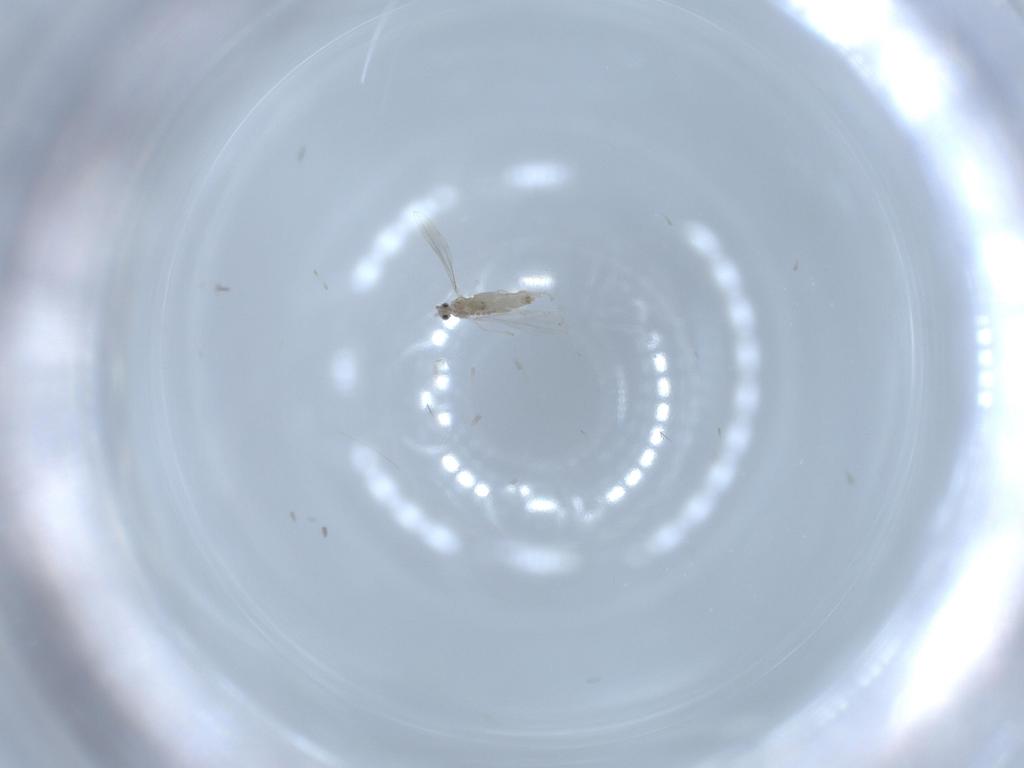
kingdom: Animalia
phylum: Arthropoda
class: Insecta
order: Diptera
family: Cecidomyiidae
